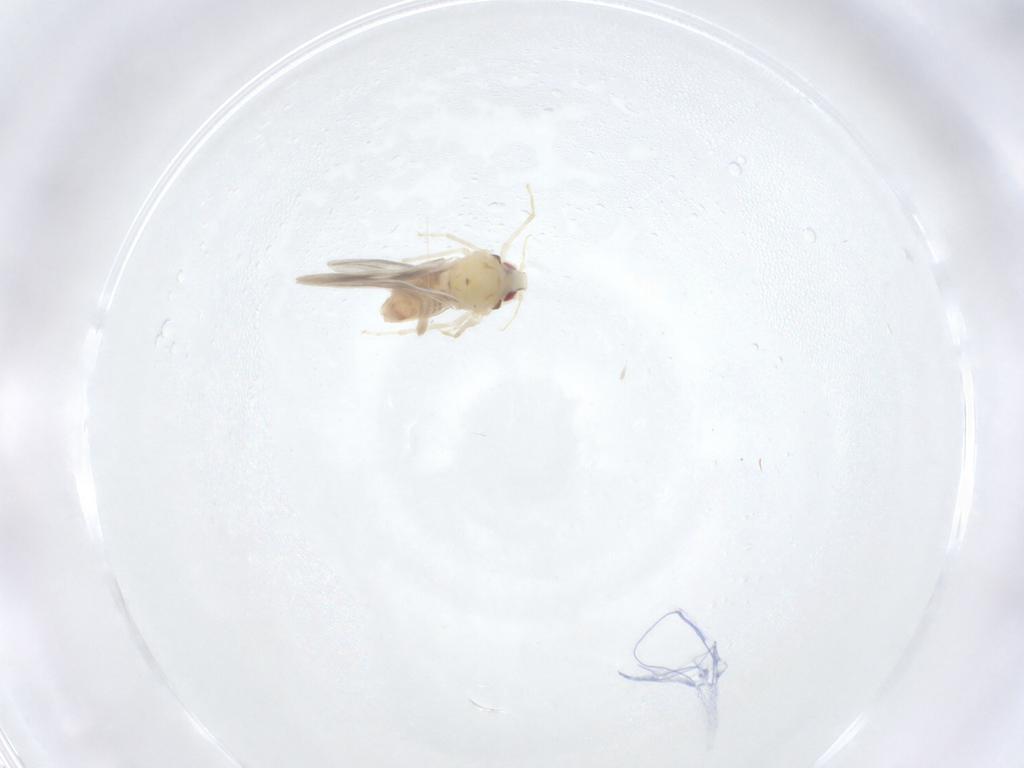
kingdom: Animalia
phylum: Arthropoda
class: Insecta
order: Hemiptera
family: Aleyrodidae
